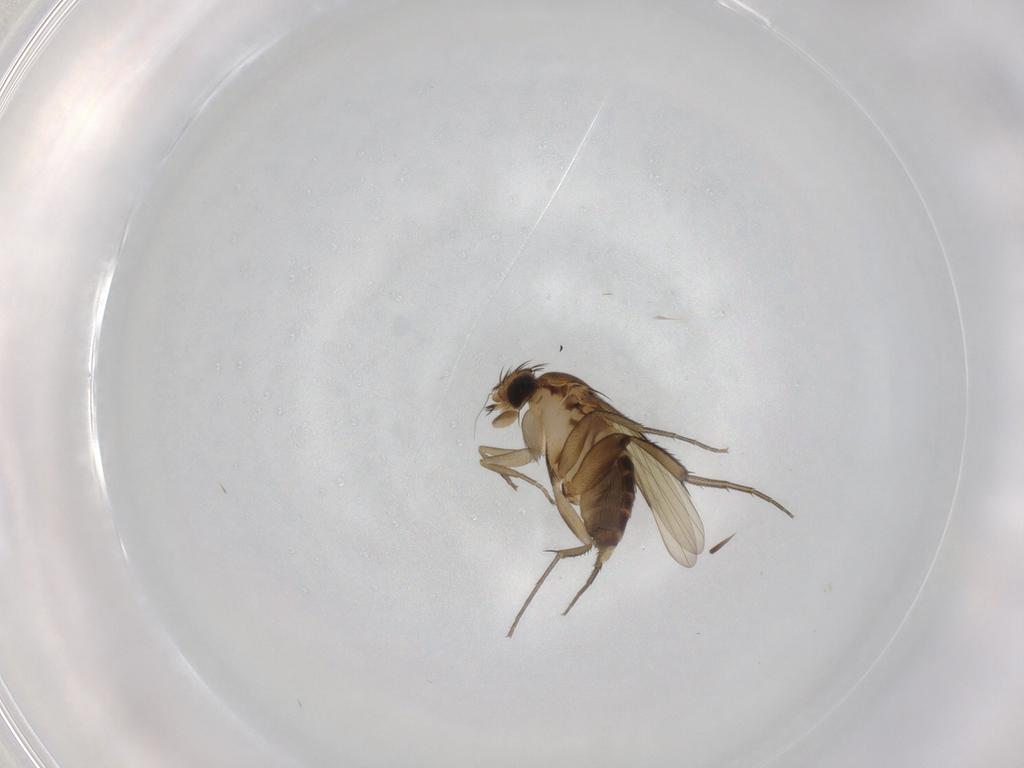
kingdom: Animalia
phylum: Arthropoda
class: Insecta
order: Diptera
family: Phoridae
